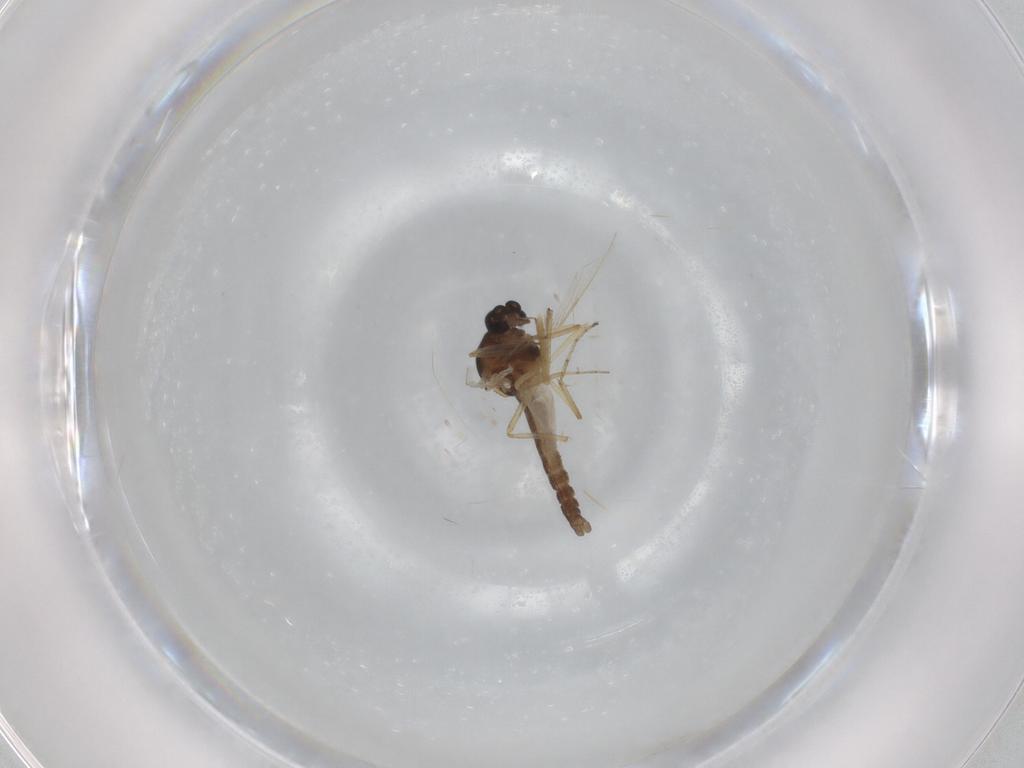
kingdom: Animalia
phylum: Arthropoda
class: Insecta
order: Diptera
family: Ceratopogonidae
